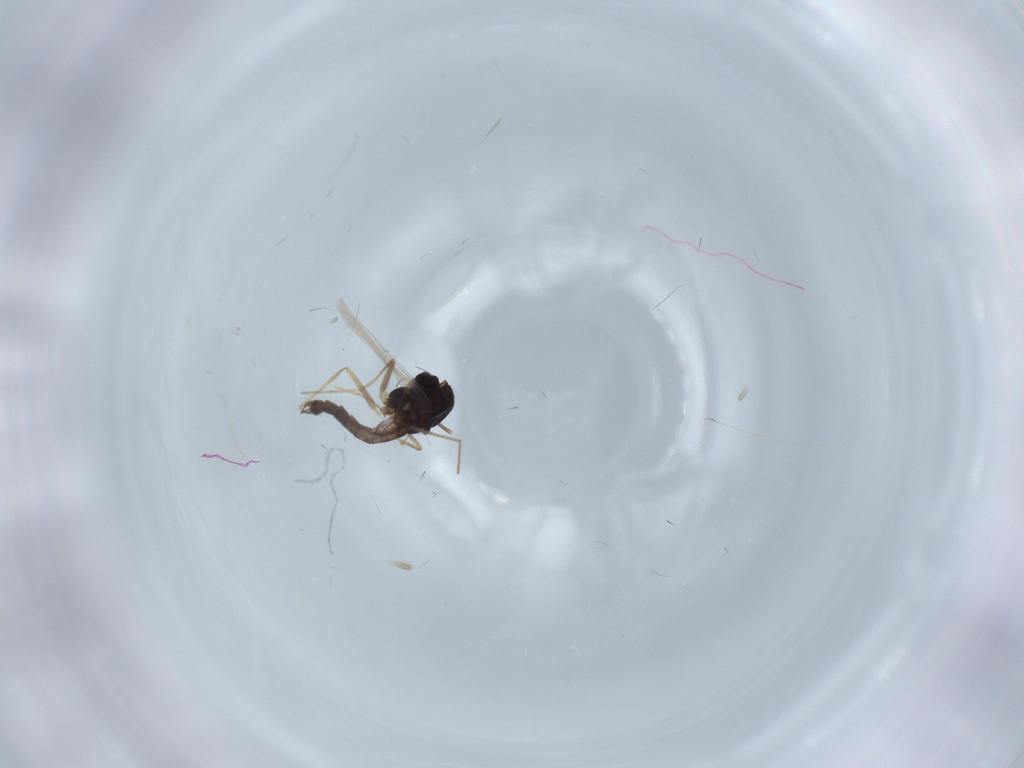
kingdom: Animalia
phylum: Arthropoda
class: Insecta
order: Diptera
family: Chironomidae
